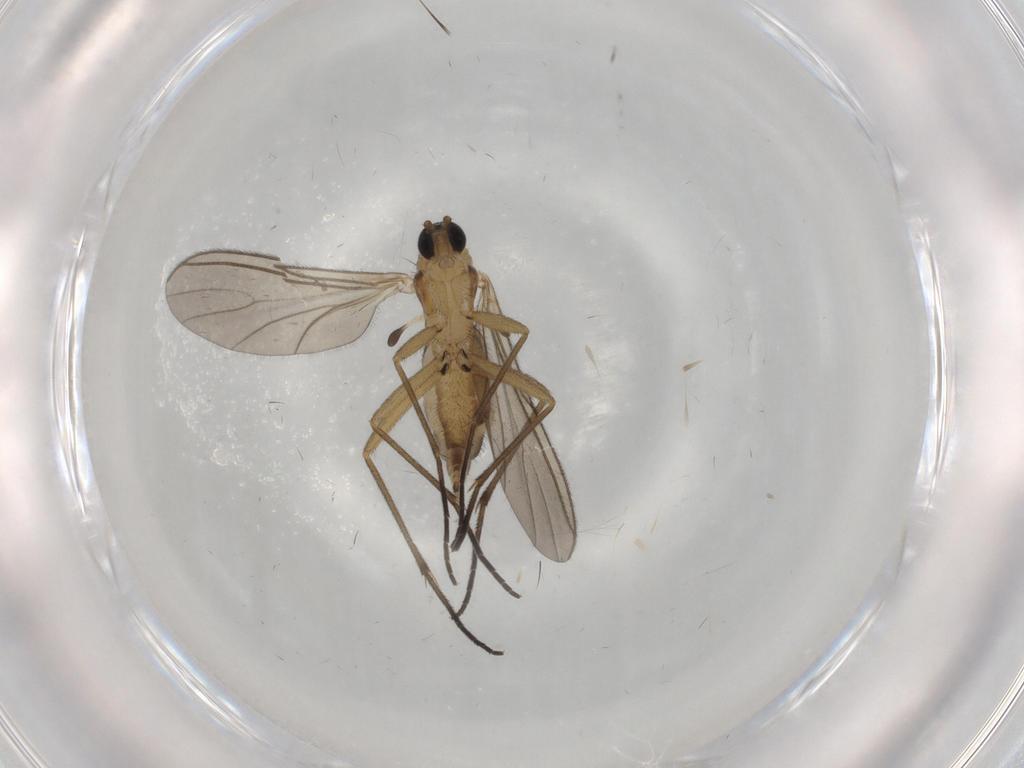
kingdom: Animalia
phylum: Arthropoda
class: Insecta
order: Diptera
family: Sciaridae
